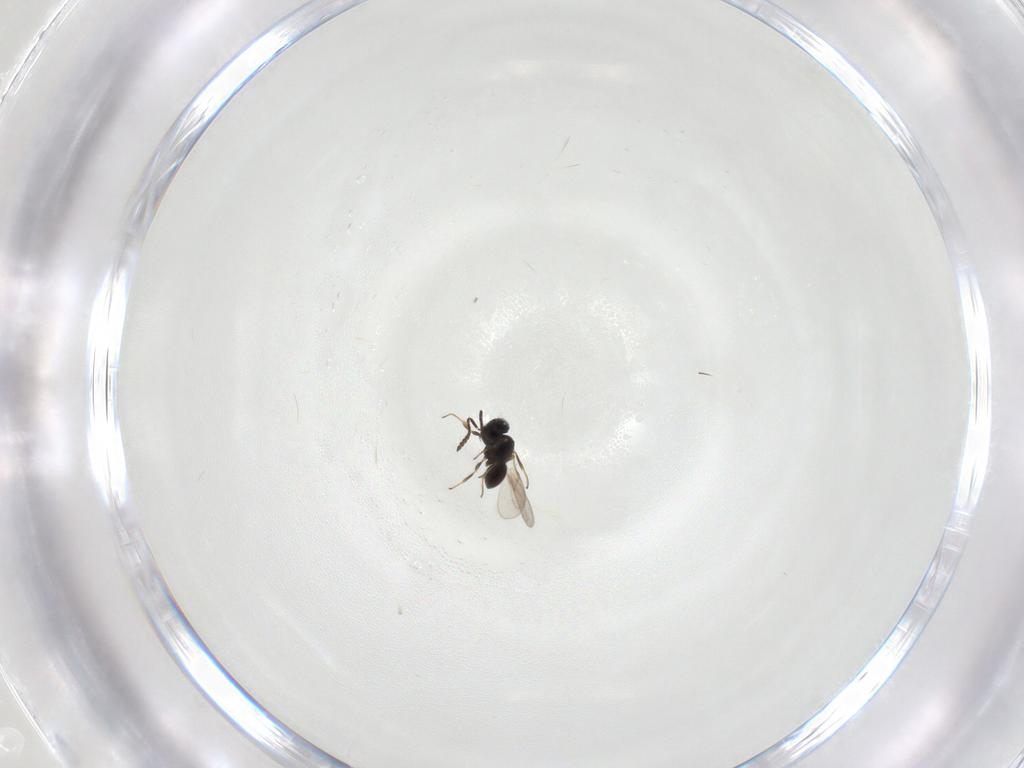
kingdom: Animalia
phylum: Arthropoda
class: Insecta
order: Hymenoptera
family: Scelionidae
